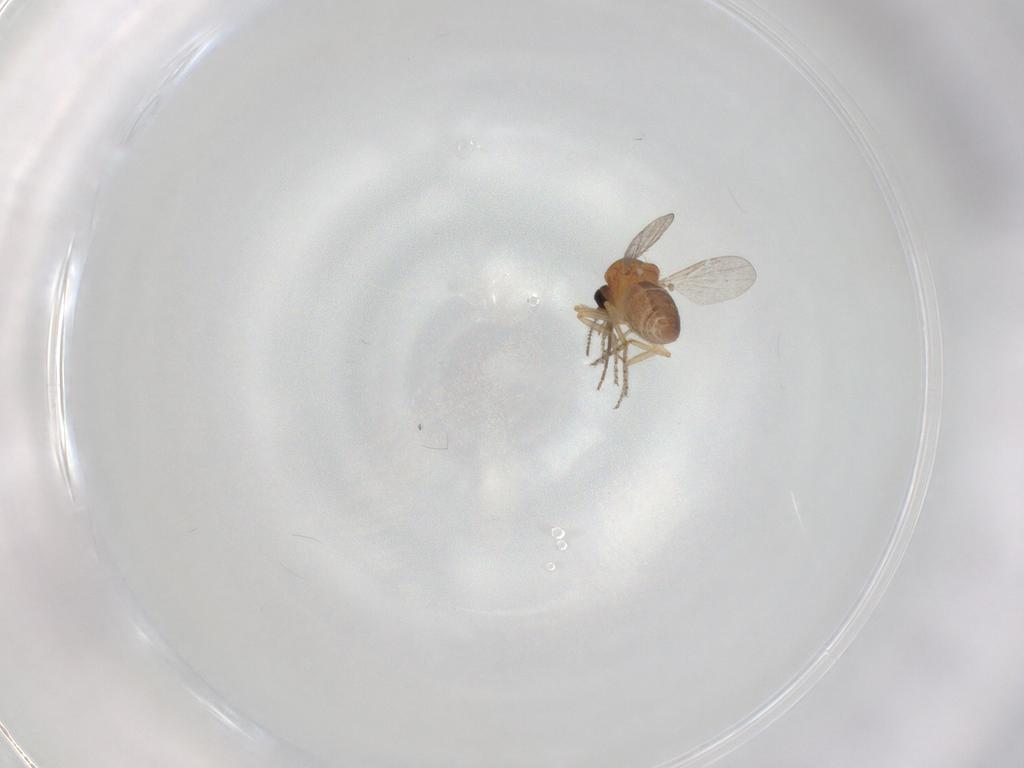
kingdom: Animalia
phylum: Arthropoda
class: Insecta
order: Diptera
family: Ceratopogonidae
